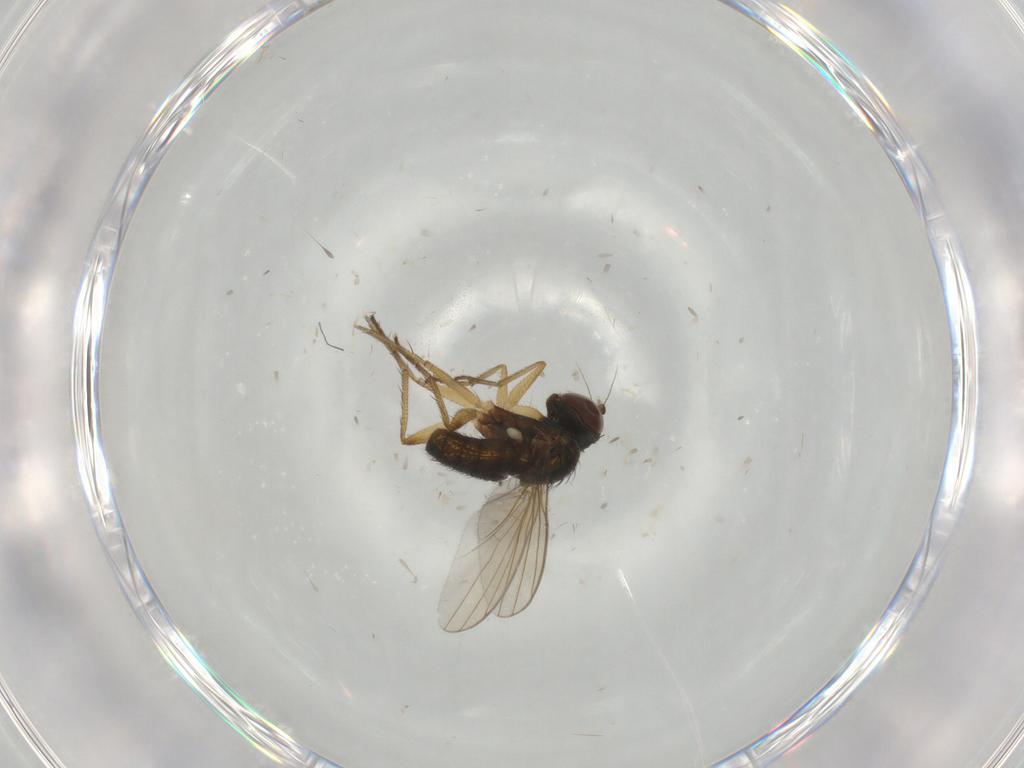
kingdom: Animalia
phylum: Arthropoda
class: Insecta
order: Diptera
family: Dolichopodidae
